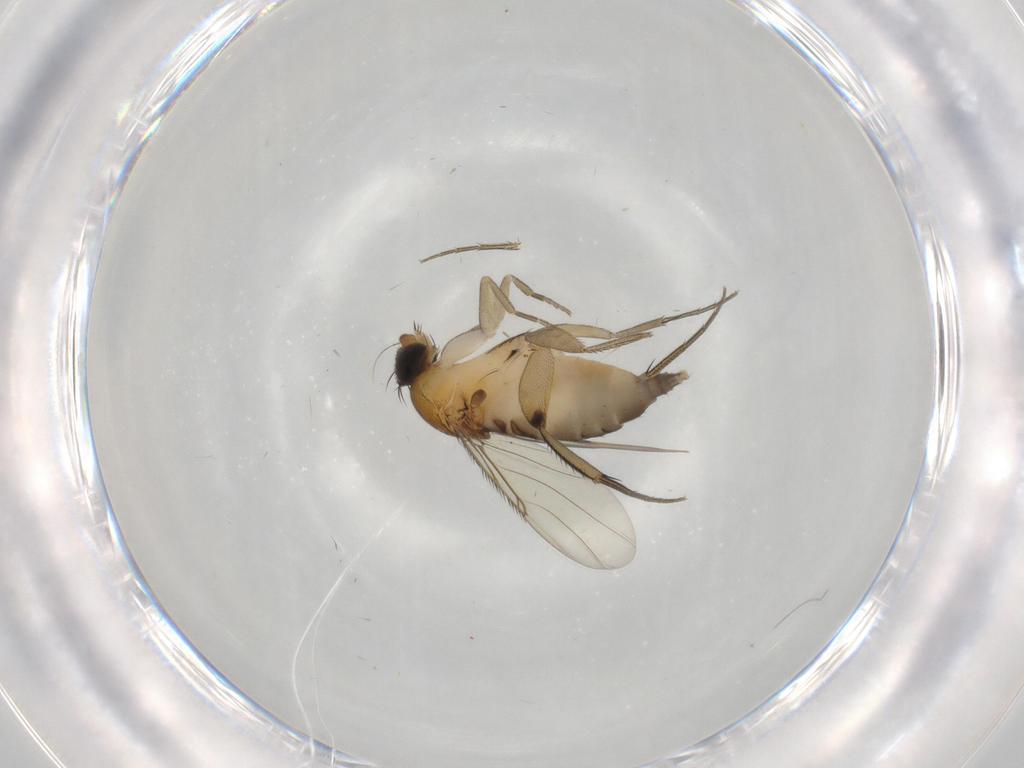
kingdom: Animalia
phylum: Arthropoda
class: Insecta
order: Diptera
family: Phoridae
